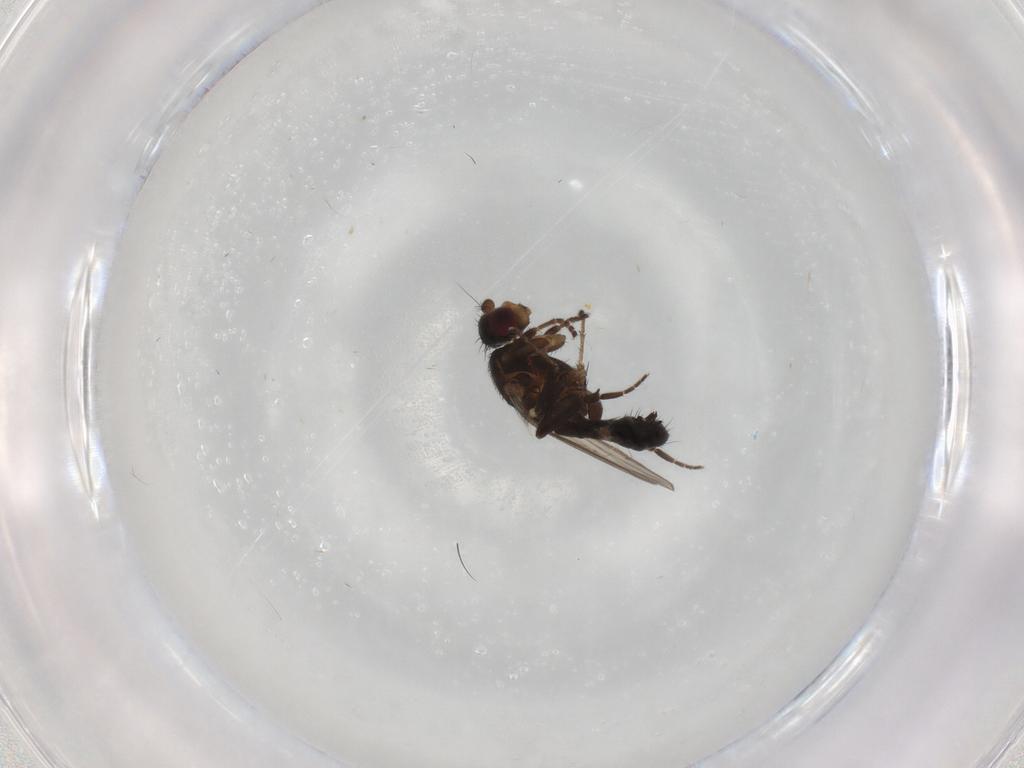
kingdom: Animalia
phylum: Arthropoda
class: Insecta
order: Diptera
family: Sphaeroceridae
